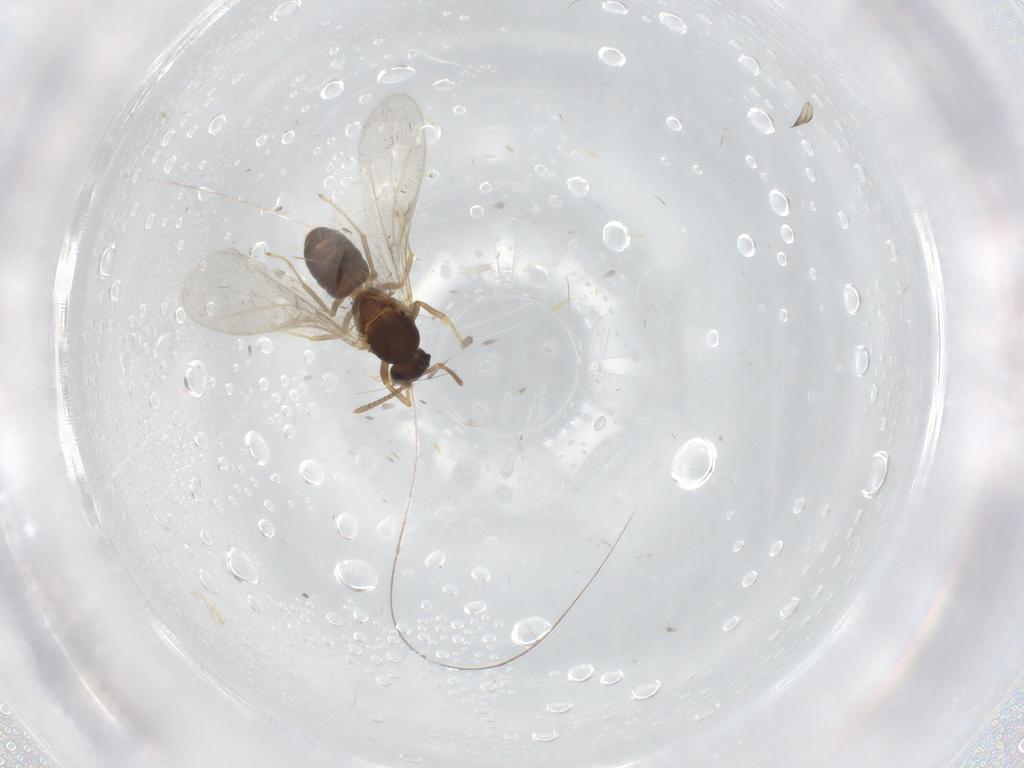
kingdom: Animalia
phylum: Arthropoda
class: Insecta
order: Hymenoptera
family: Formicidae
